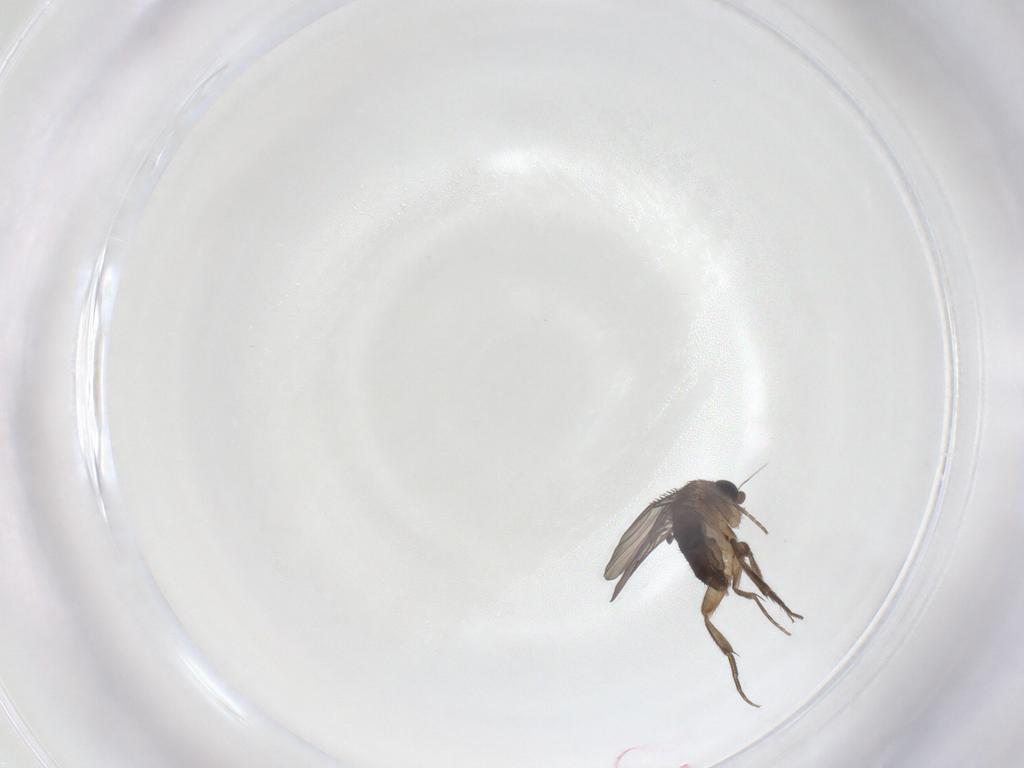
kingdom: Animalia
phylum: Arthropoda
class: Insecta
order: Diptera
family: Phoridae
